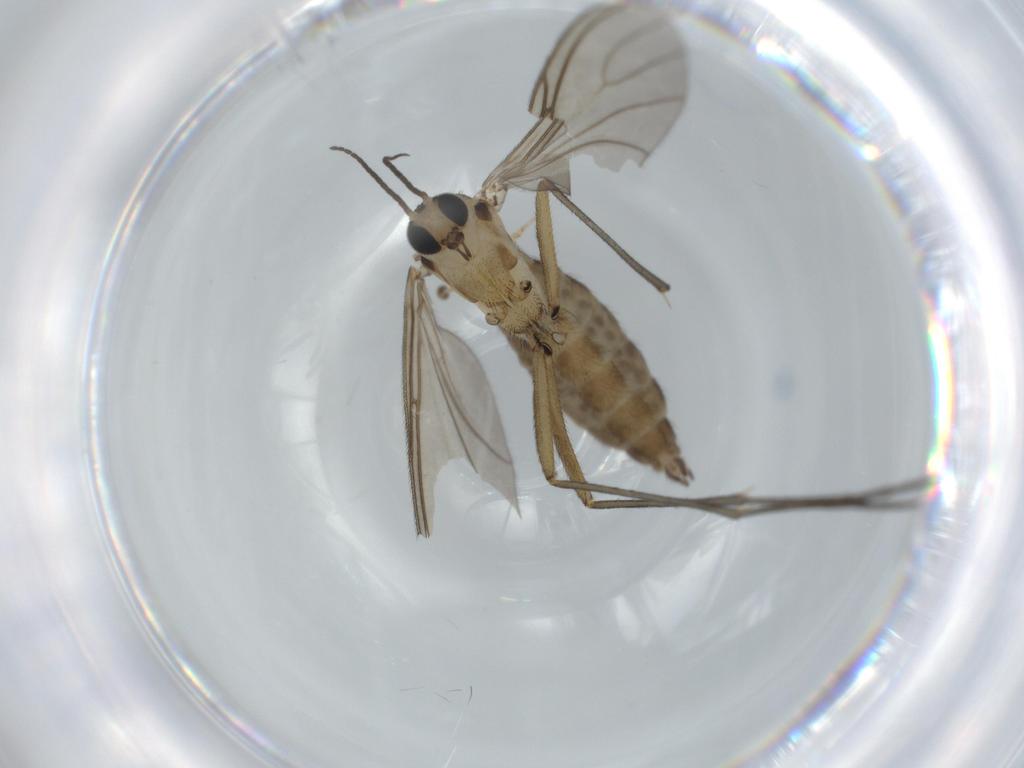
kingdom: Animalia
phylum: Arthropoda
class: Insecta
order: Diptera
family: Sciaridae
